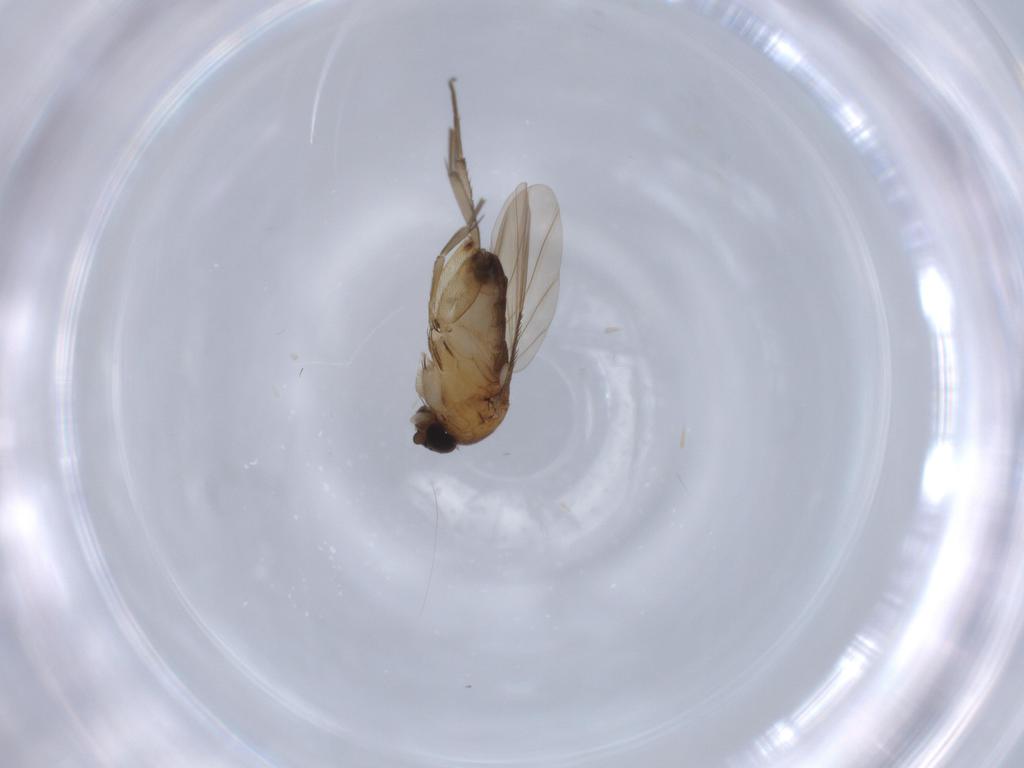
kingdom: Animalia
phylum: Arthropoda
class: Insecta
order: Diptera
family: Phoridae
